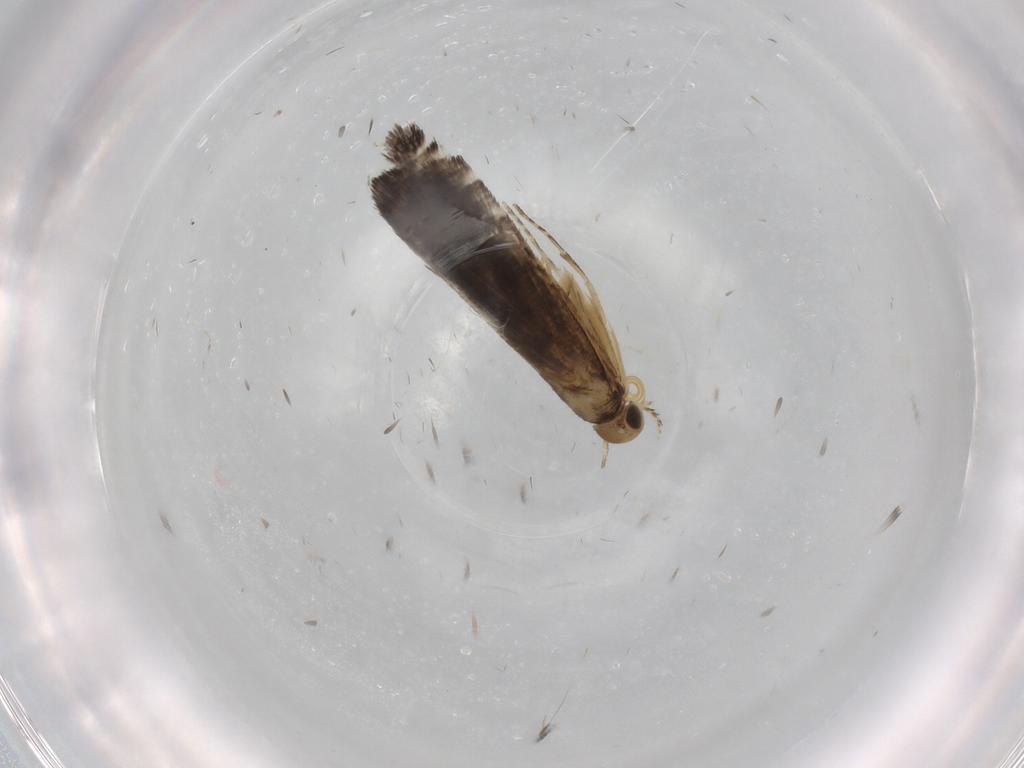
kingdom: Animalia
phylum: Arthropoda
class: Insecta
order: Lepidoptera
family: Glyphipterigidae
